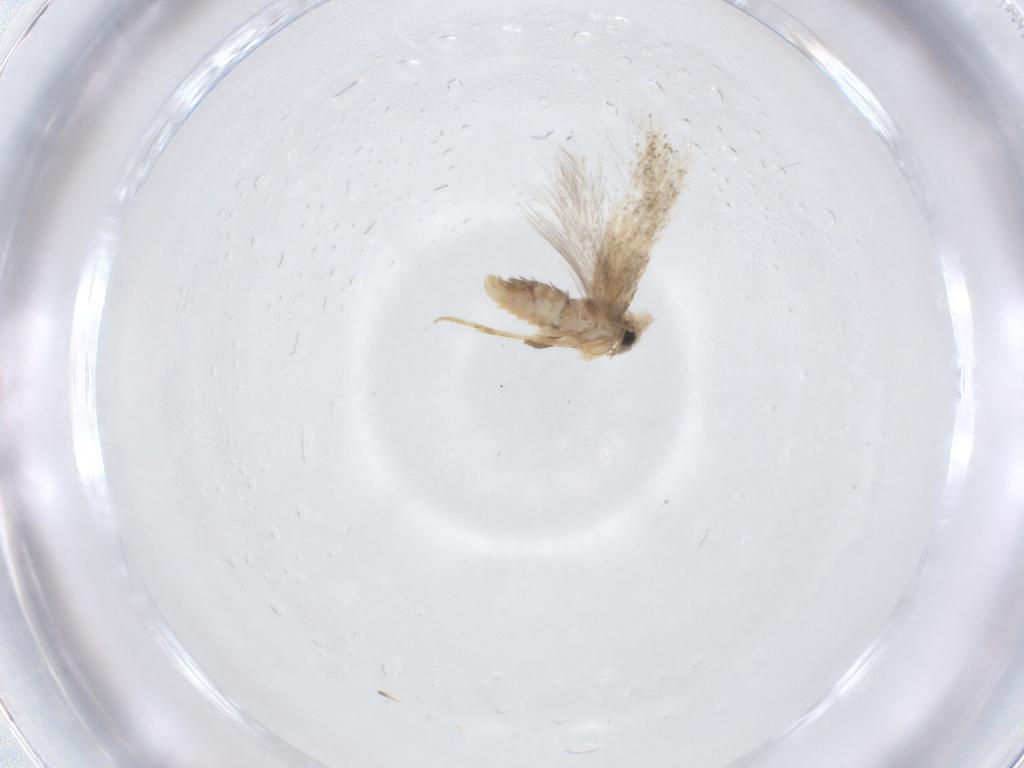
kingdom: Animalia
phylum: Arthropoda
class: Insecta
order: Lepidoptera
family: Nepticulidae
